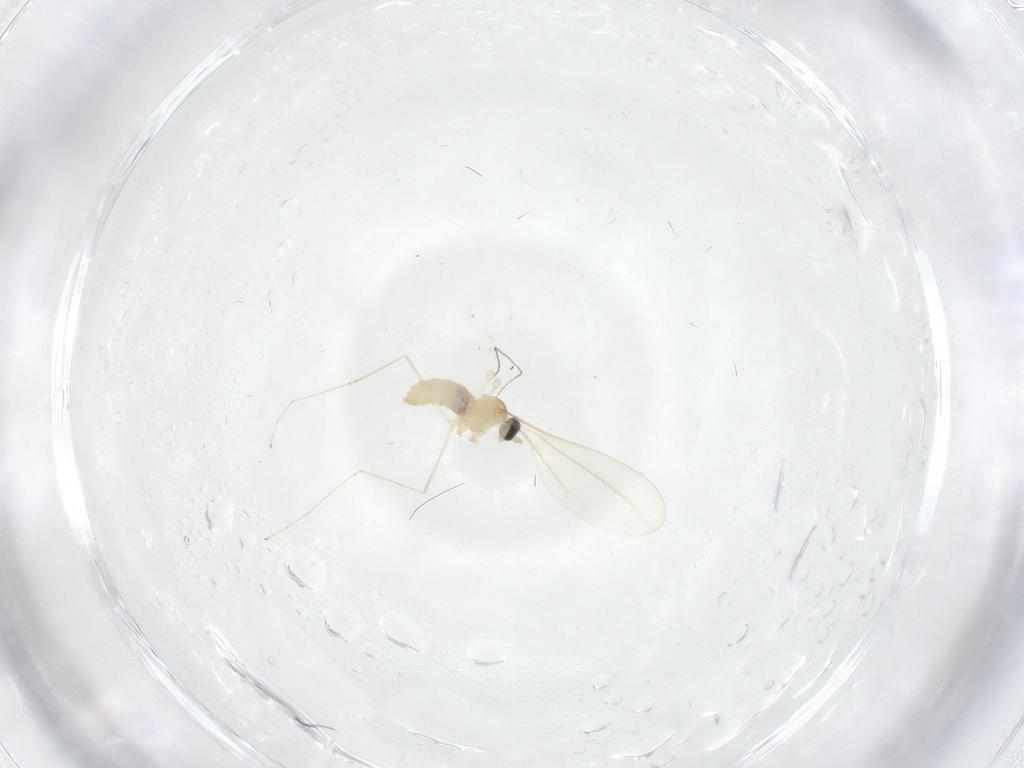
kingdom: Animalia
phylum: Arthropoda
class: Insecta
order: Diptera
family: Cecidomyiidae
